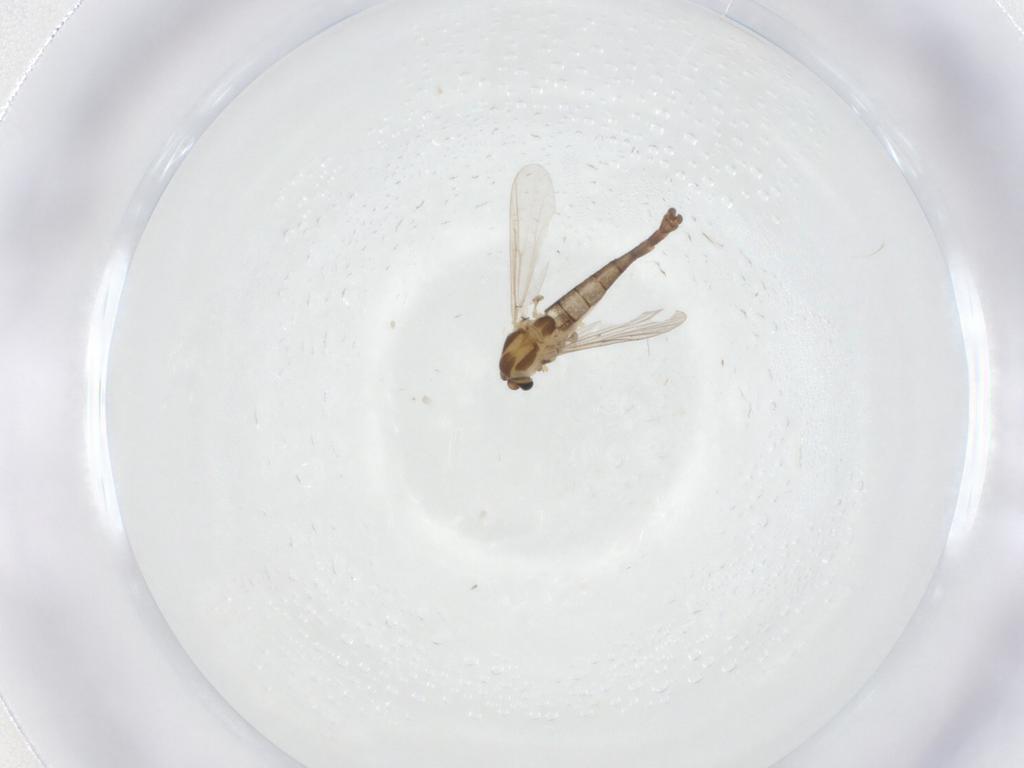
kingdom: Animalia
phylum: Arthropoda
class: Insecta
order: Diptera
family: Chironomidae
